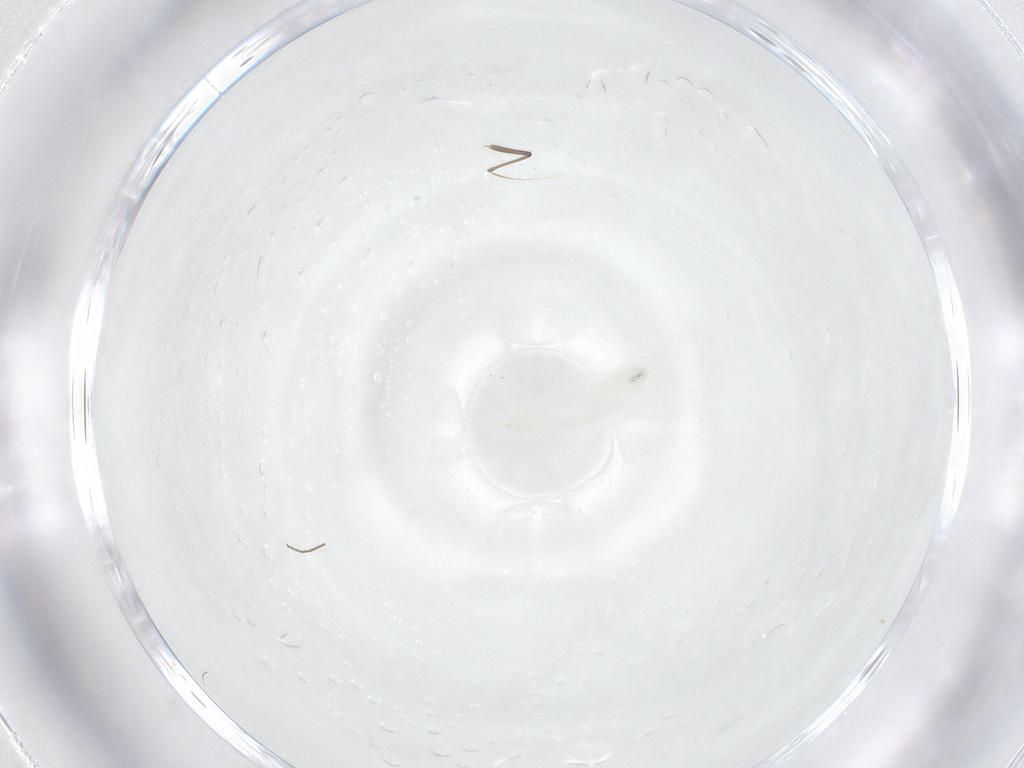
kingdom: Animalia
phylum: Arthropoda
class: Insecta
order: Diptera
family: Tachinidae
